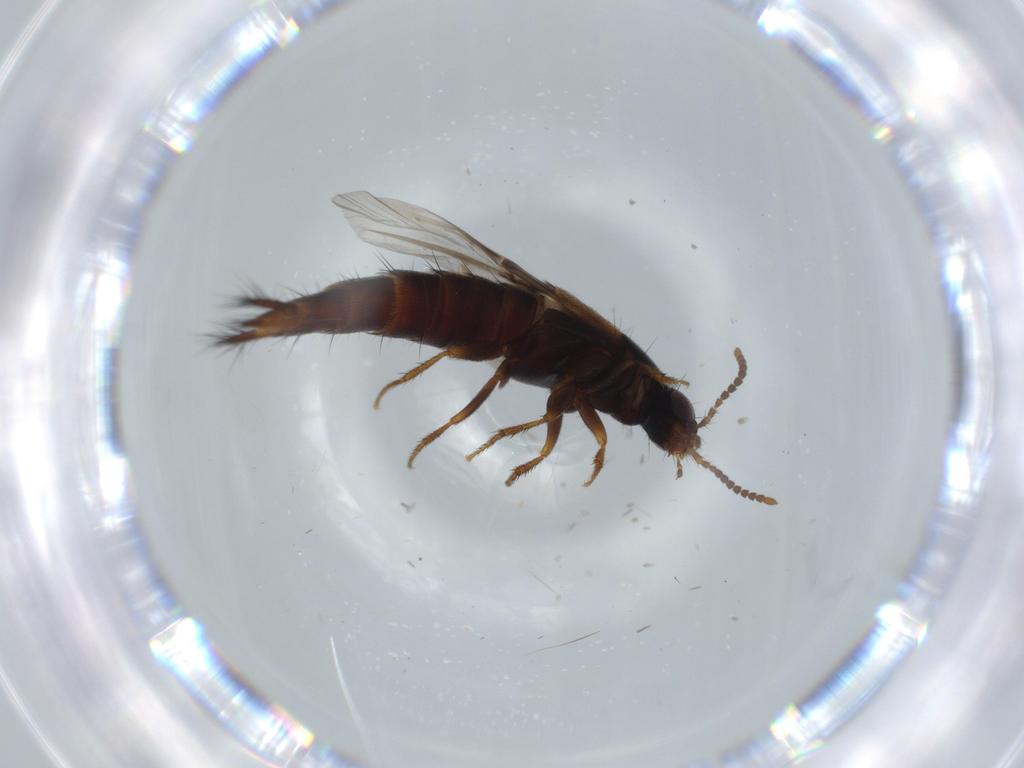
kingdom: Animalia
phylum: Arthropoda
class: Insecta
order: Coleoptera
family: Staphylinidae
